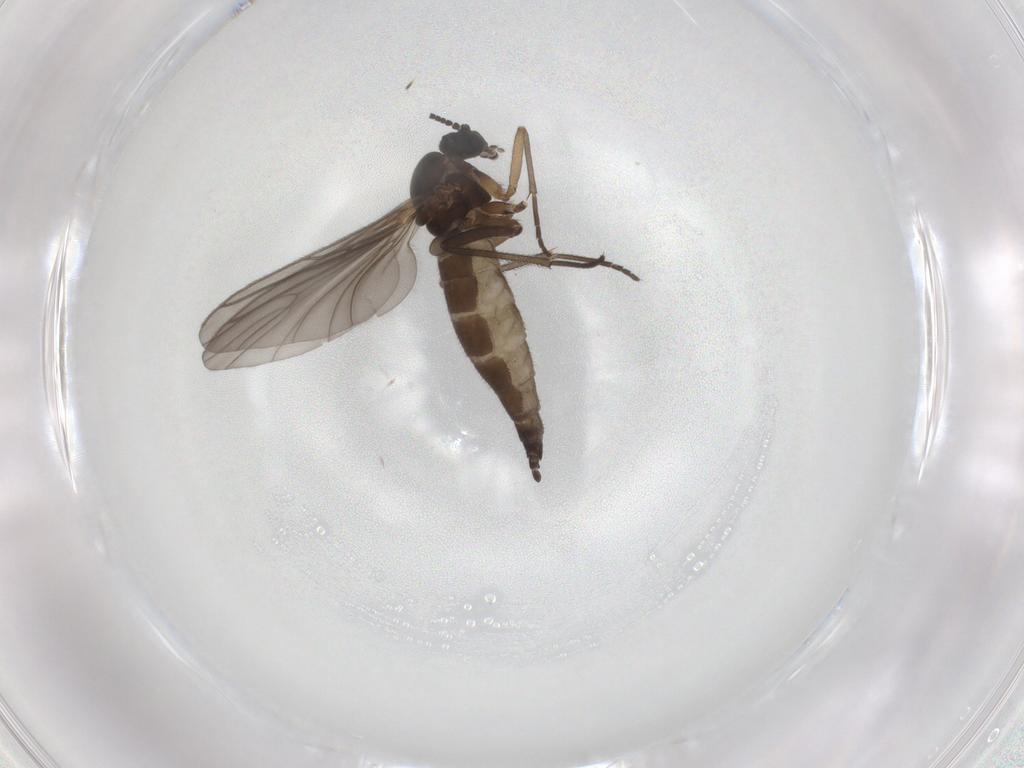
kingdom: Animalia
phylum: Arthropoda
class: Insecta
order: Diptera
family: Sciaridae
